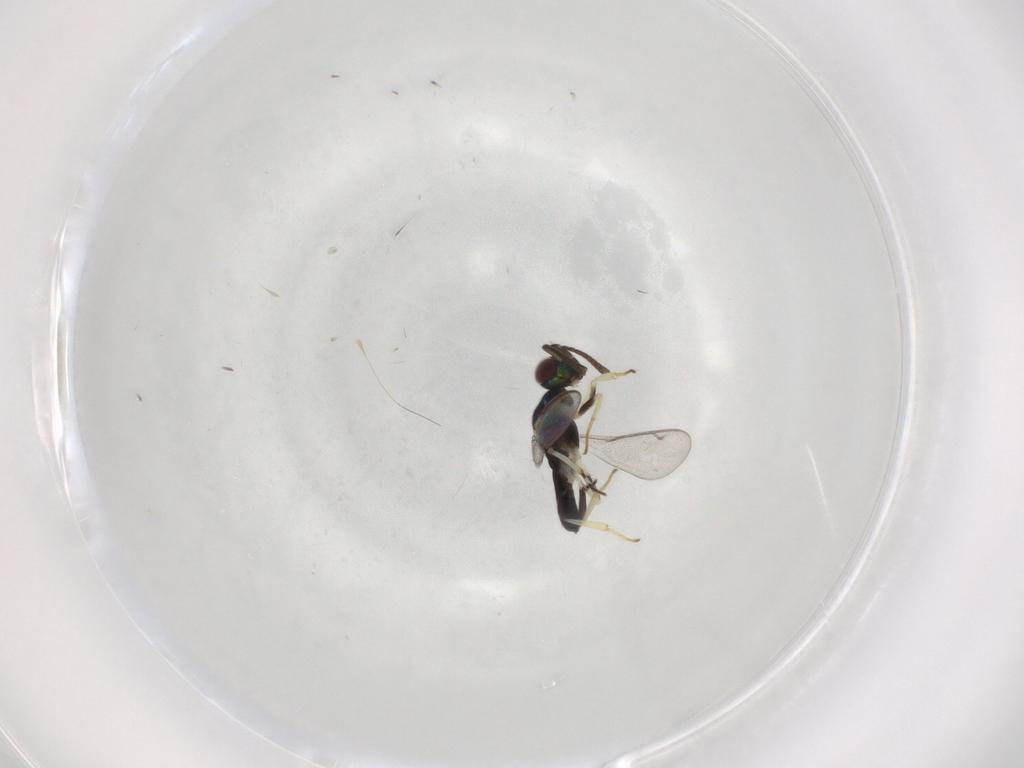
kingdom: Animalia
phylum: Arthropoda
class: Insecta
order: Hymenoptera
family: Eupelmidae
